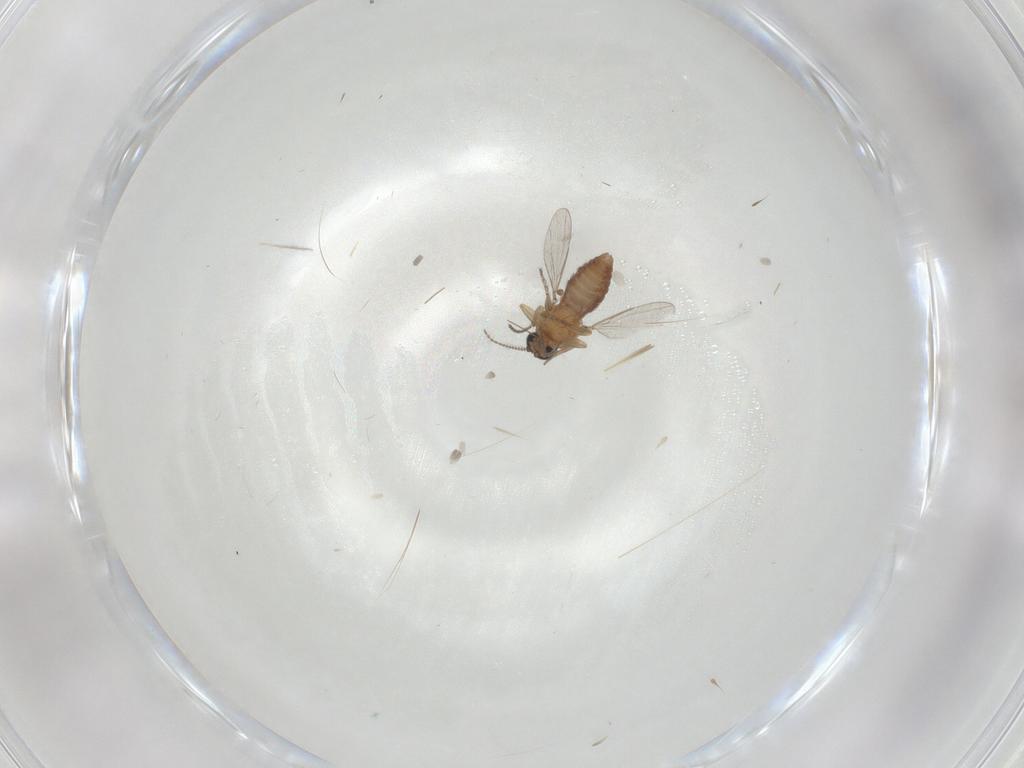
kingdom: Animalia
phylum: Arthropoda
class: Insecta
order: Diptera
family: Ceratopogonidae
